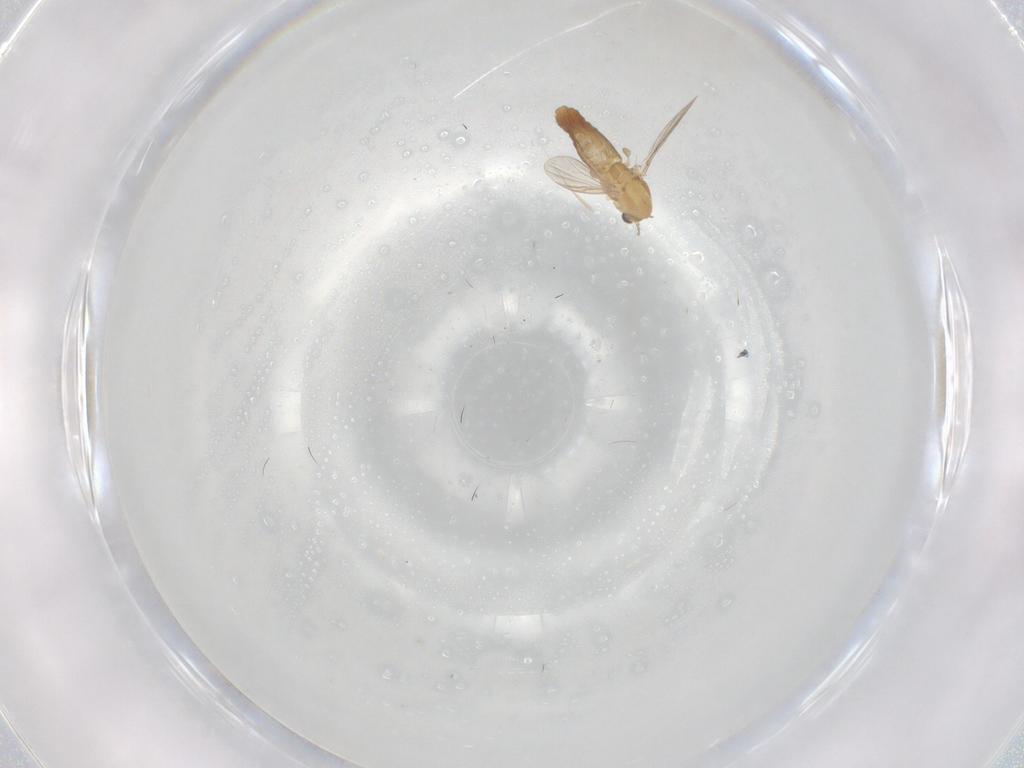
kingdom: Animalia
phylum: Arthropoda
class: Insecta
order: Diptera
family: Chironomidae
